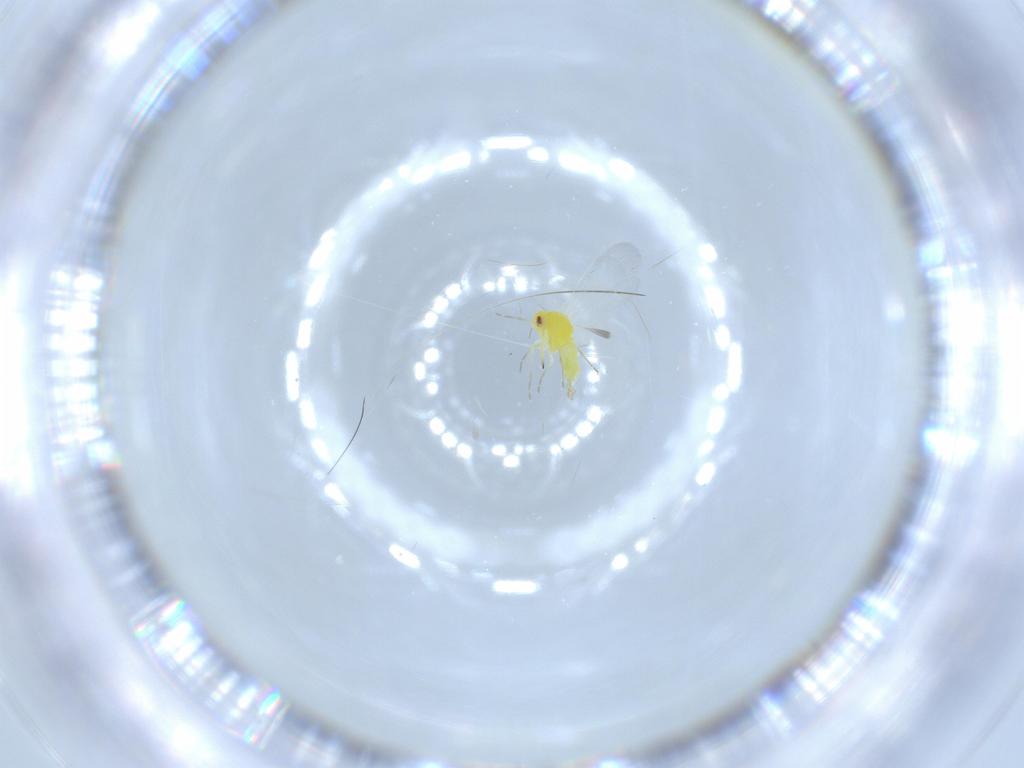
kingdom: Animalia
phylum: Arthropoda
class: Insecta
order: Hemiptera
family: Aleyrodidae
